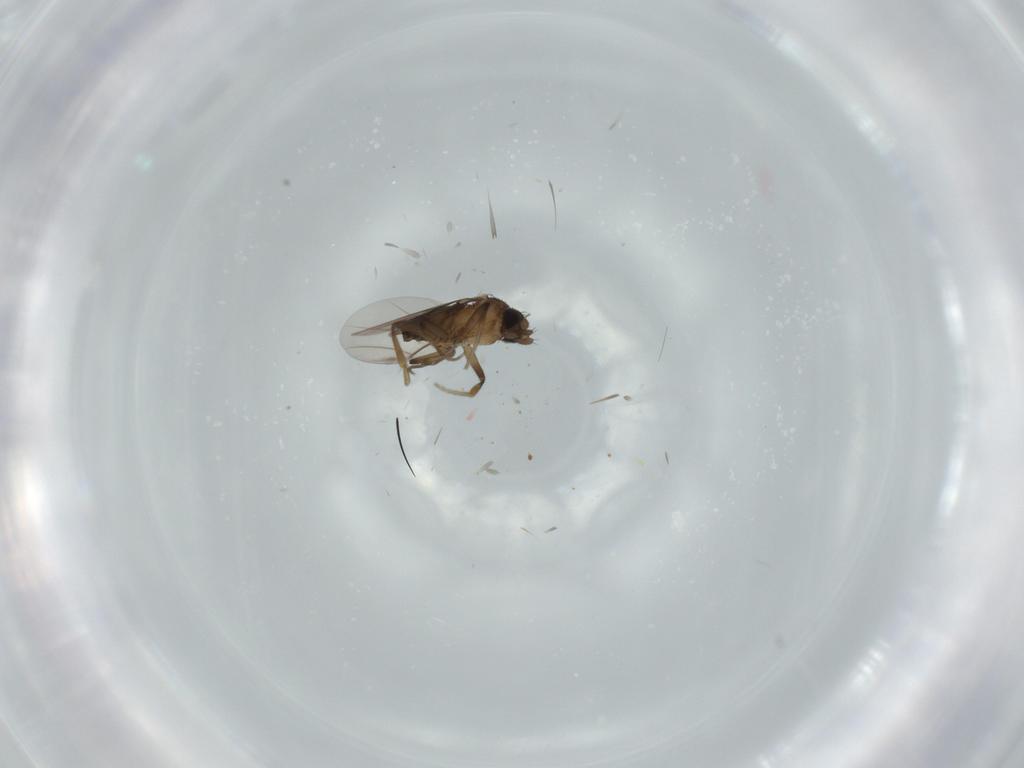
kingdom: Animalia
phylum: Arthropoda
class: Insecta
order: Diptera
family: Phoridae
